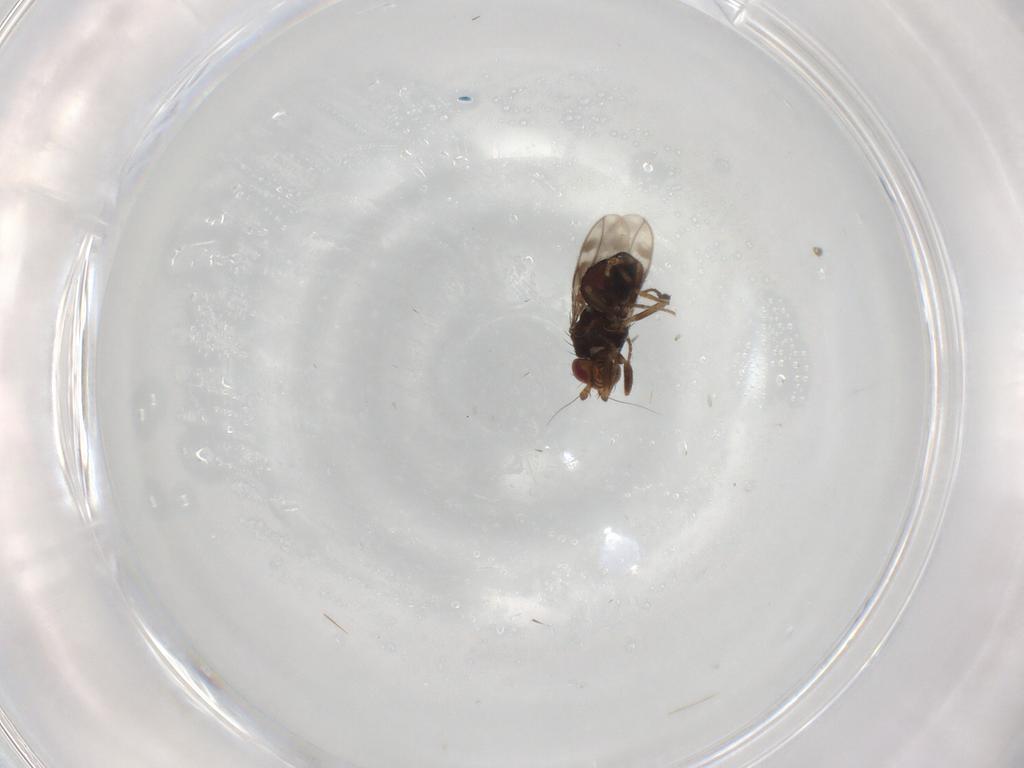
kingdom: Animalia
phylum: Arthropoda
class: Insecta
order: Diptera
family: Sphaeroceridae
